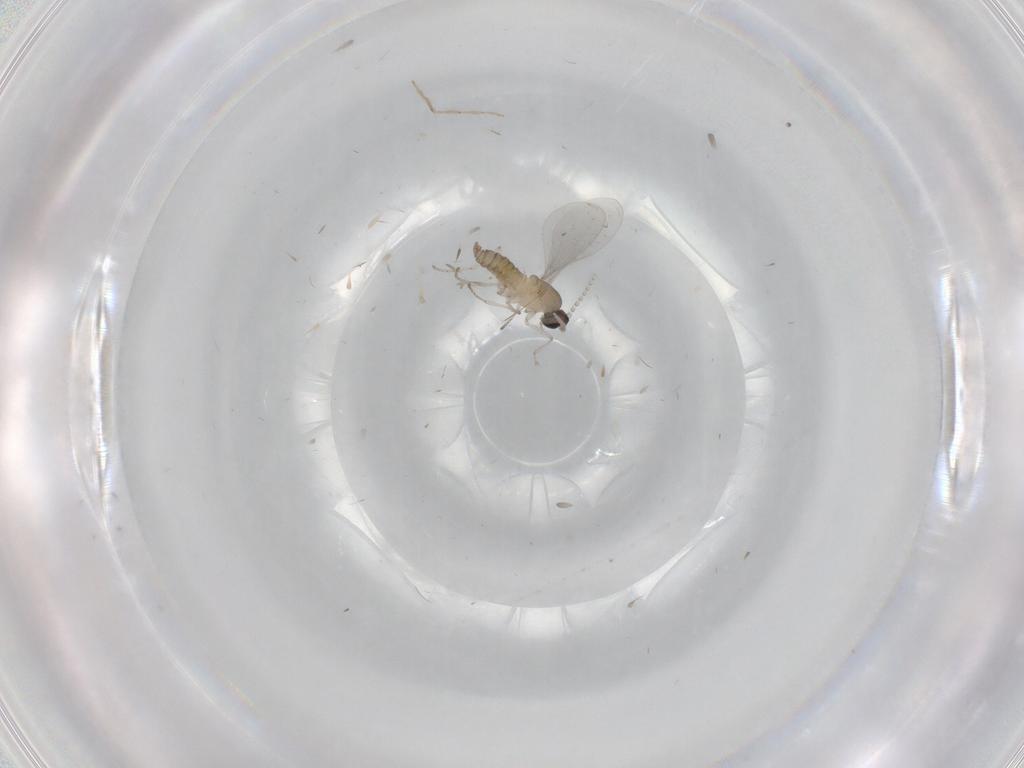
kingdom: Animalia
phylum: Arthropoda
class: Insecta
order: Diptera
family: Cecidomyiidae
